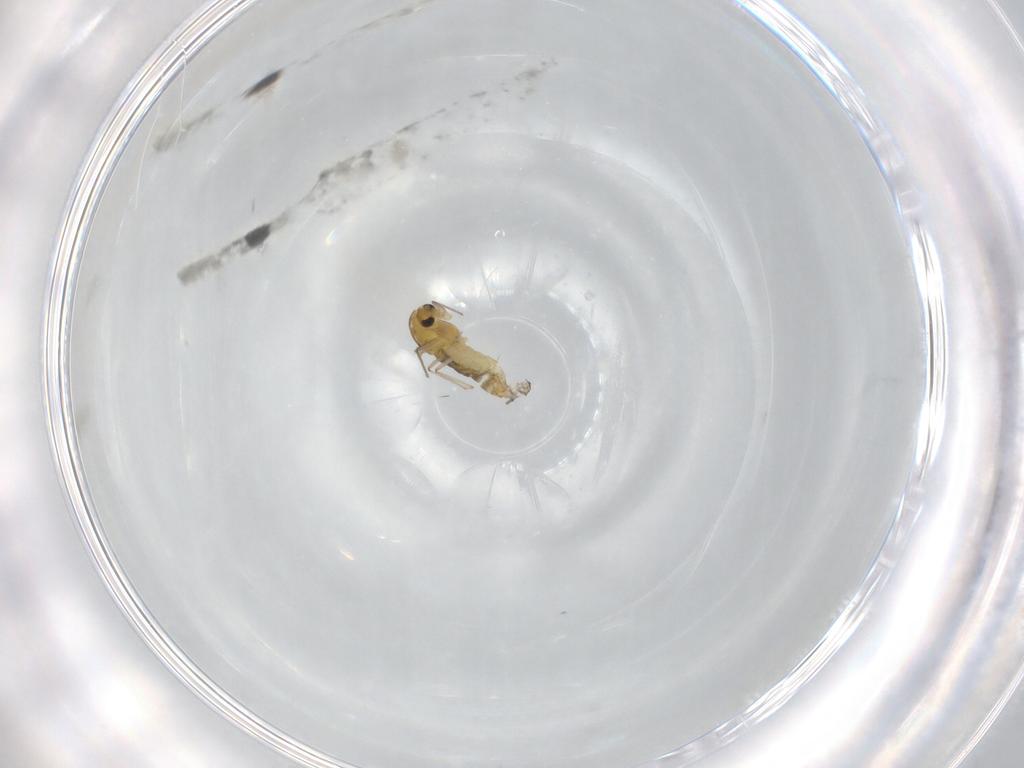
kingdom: Animalia
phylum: Arthropoda
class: Insecta
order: Diptera
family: Chironomidae
